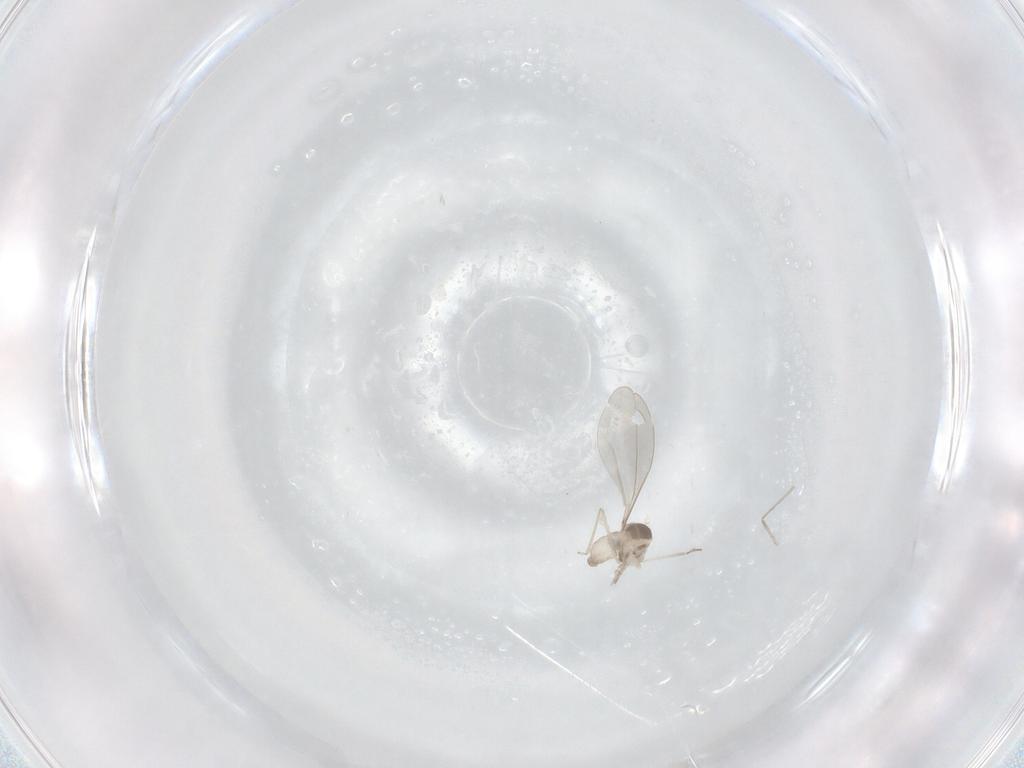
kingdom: Animalia
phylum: Arthropoda
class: Insecta
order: Diptera
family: Cecidomyiidae
